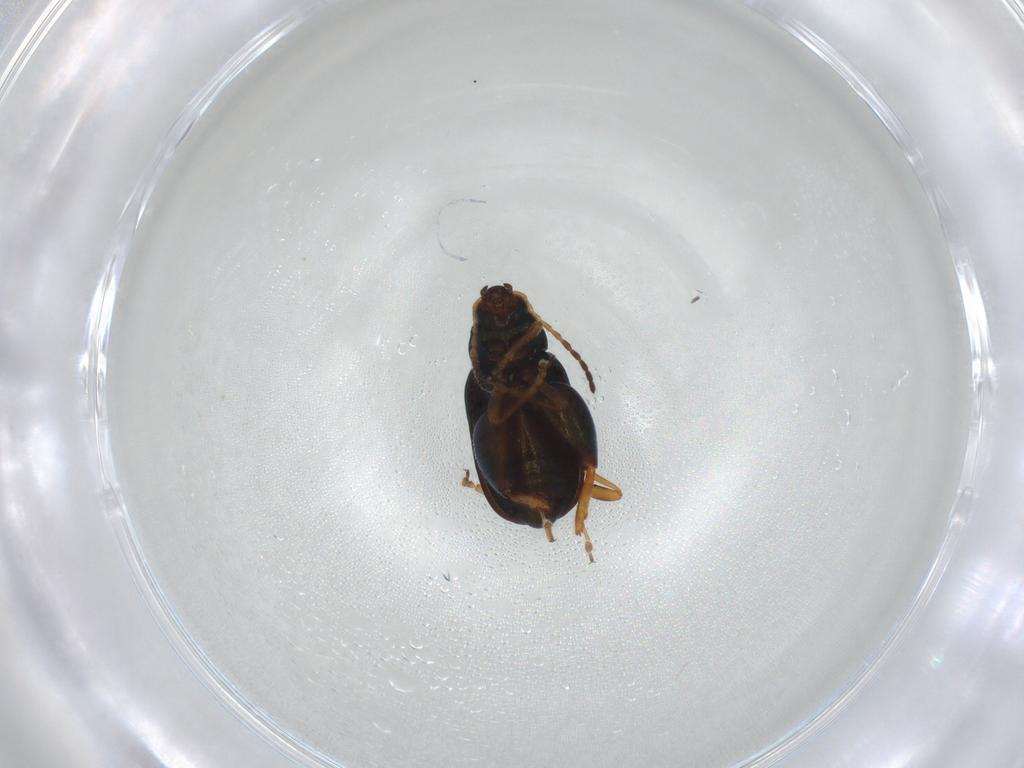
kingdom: Animalia
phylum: Arthropoda
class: Insecta
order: Coleoptera
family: Chrysomelidae
